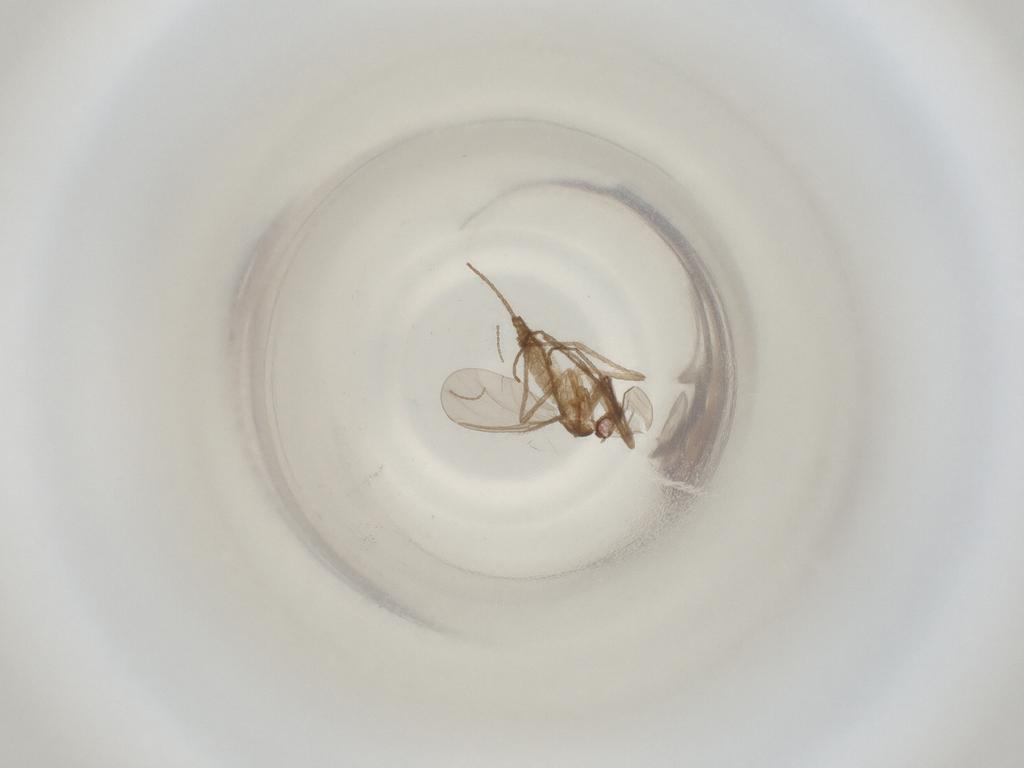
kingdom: Animalia
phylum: Arthropoda
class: Insecta
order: Diptera
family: Cecidomyiidae
